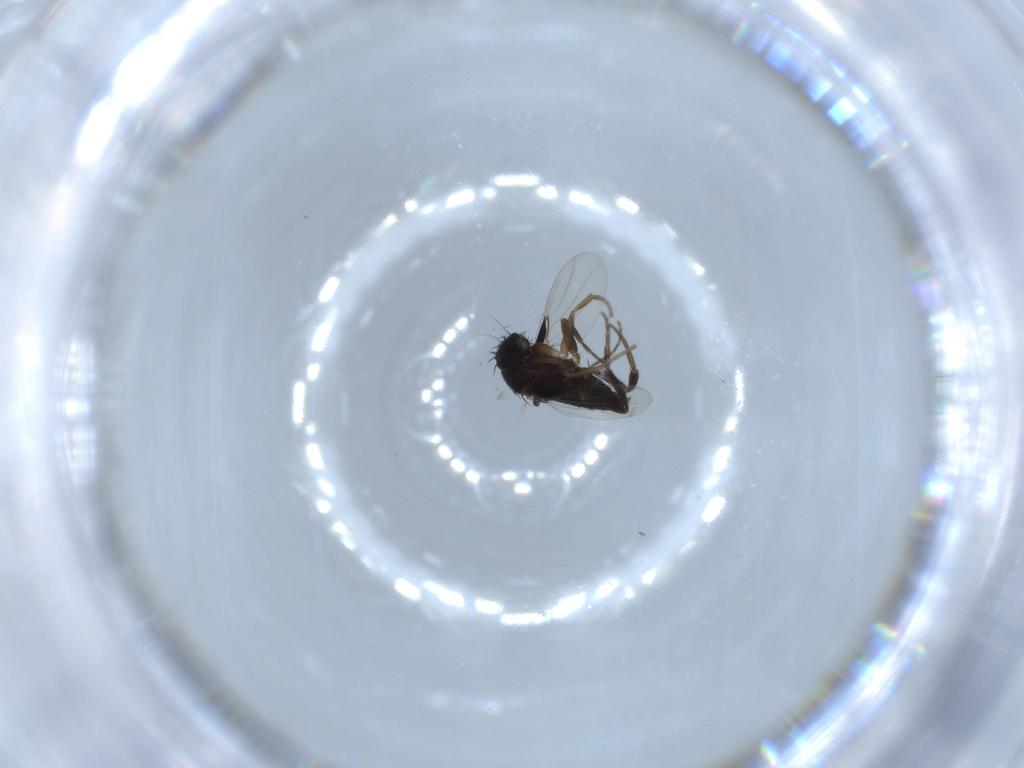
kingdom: Animalia
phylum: Arthropoda
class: Insecta
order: Diptera
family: Phoridae
